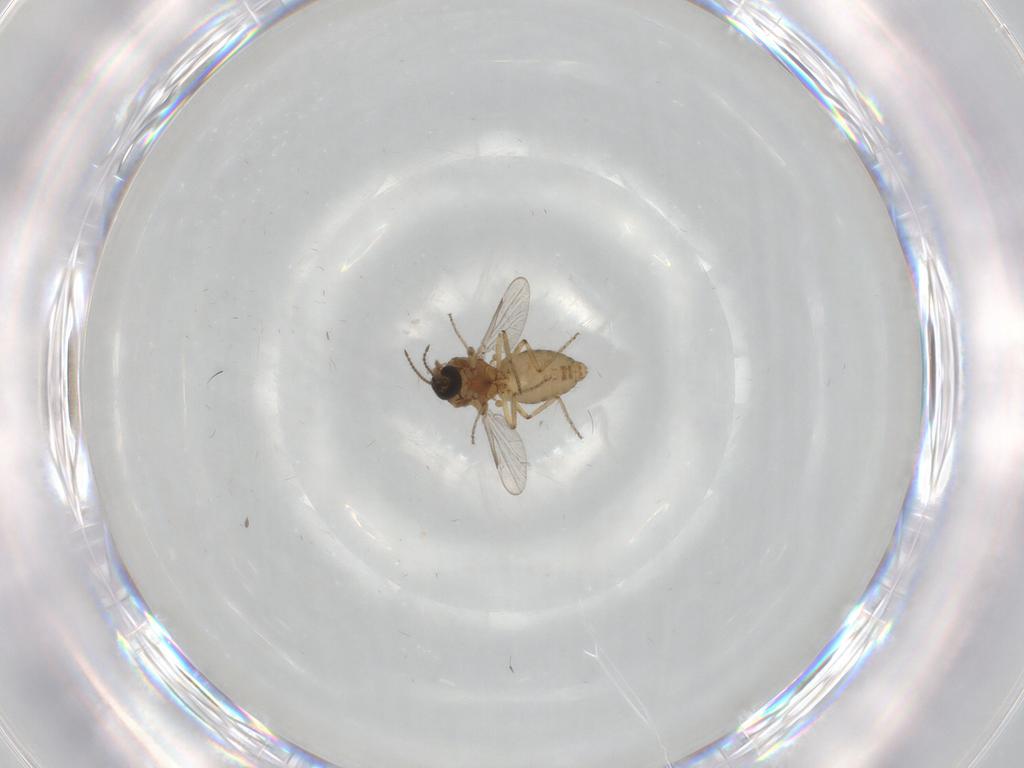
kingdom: Animalia
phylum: Arthropoda
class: Insecta
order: Diptera
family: Ceratopogonidae
